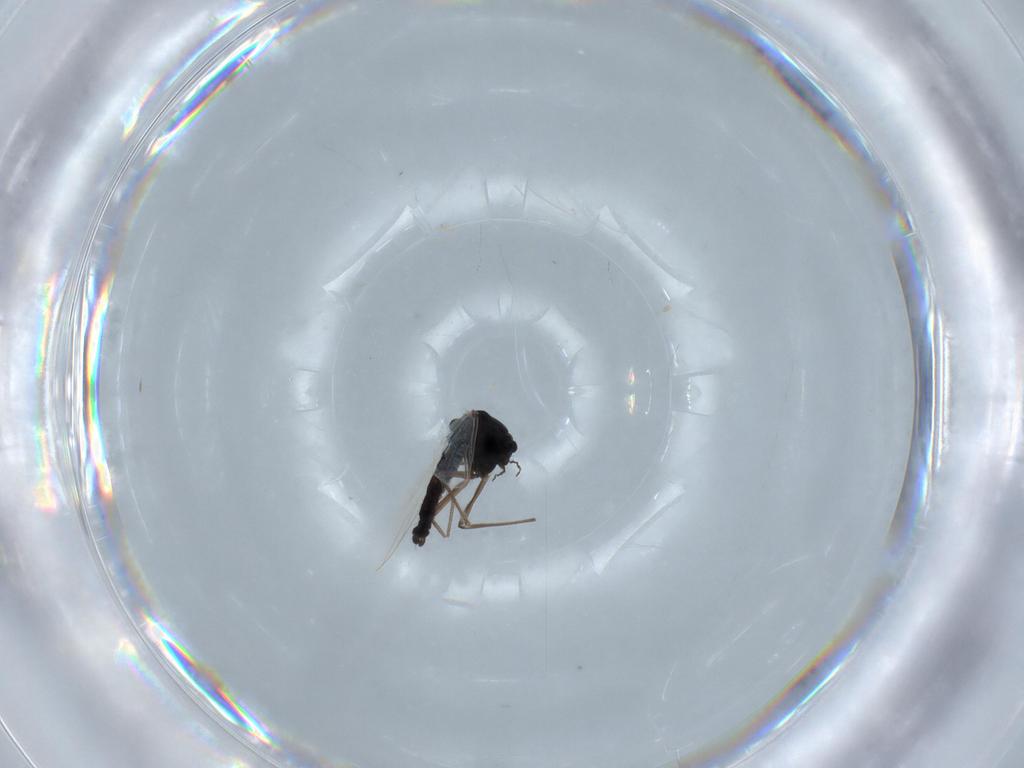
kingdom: Animalia
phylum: Arthropoda
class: Insecta
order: Diptera
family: Chironomidae
